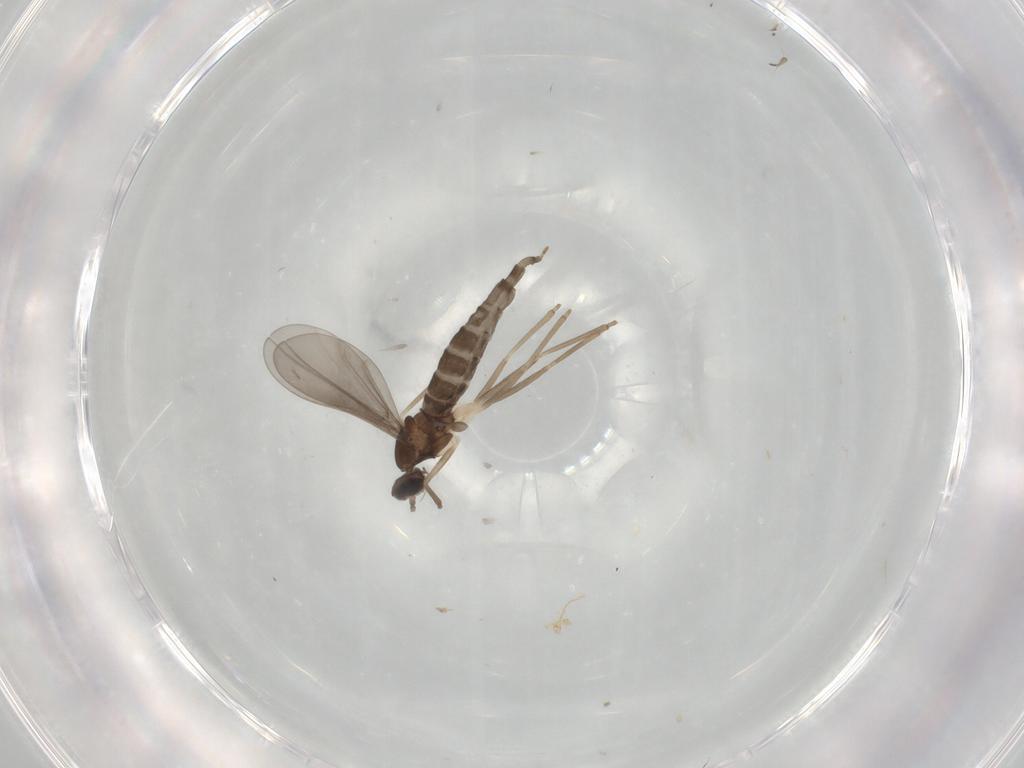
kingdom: Animalia
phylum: Arthropoda
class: Insecta
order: Diptera
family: Cecidomyiidae
